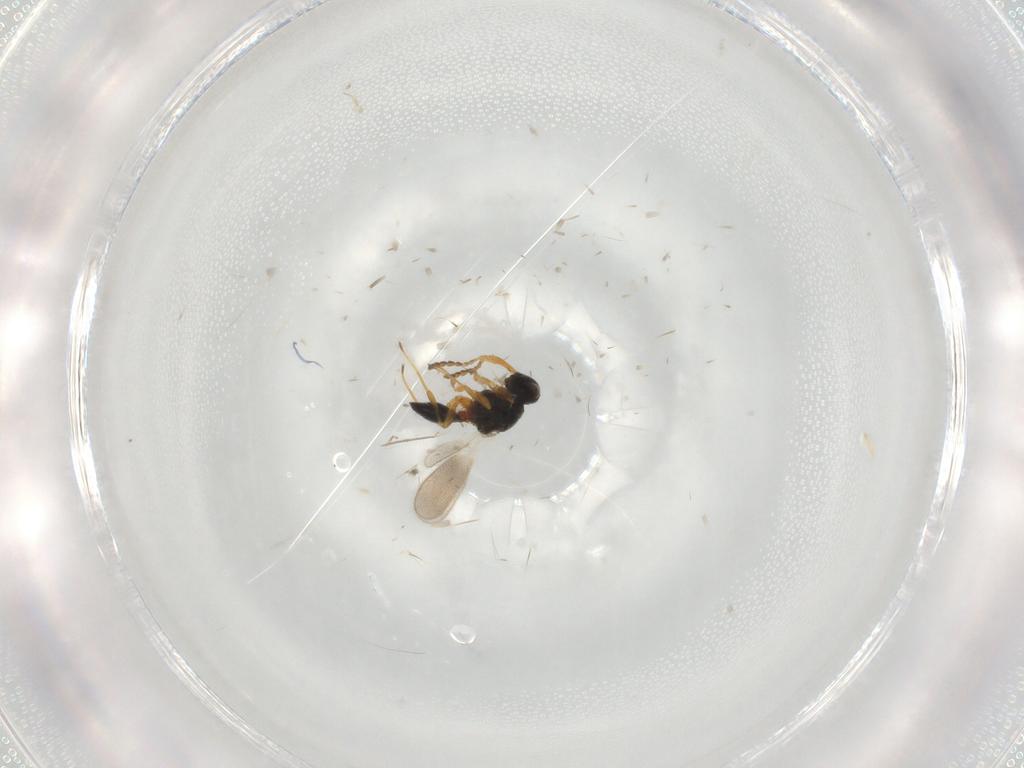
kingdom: Animalia
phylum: Arthropoda
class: Insecta
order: Hymenoptera
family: Platygastridae
